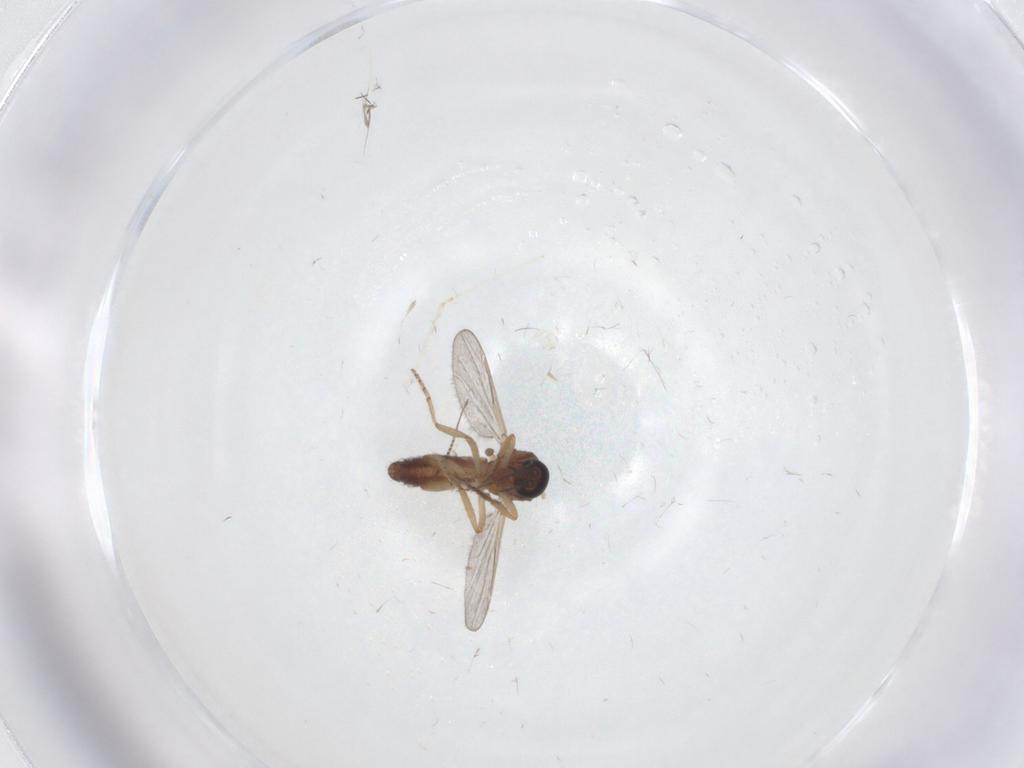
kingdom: Animalia
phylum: Arthropoda
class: Insecta
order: Diptera
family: Ceratopogonidae
